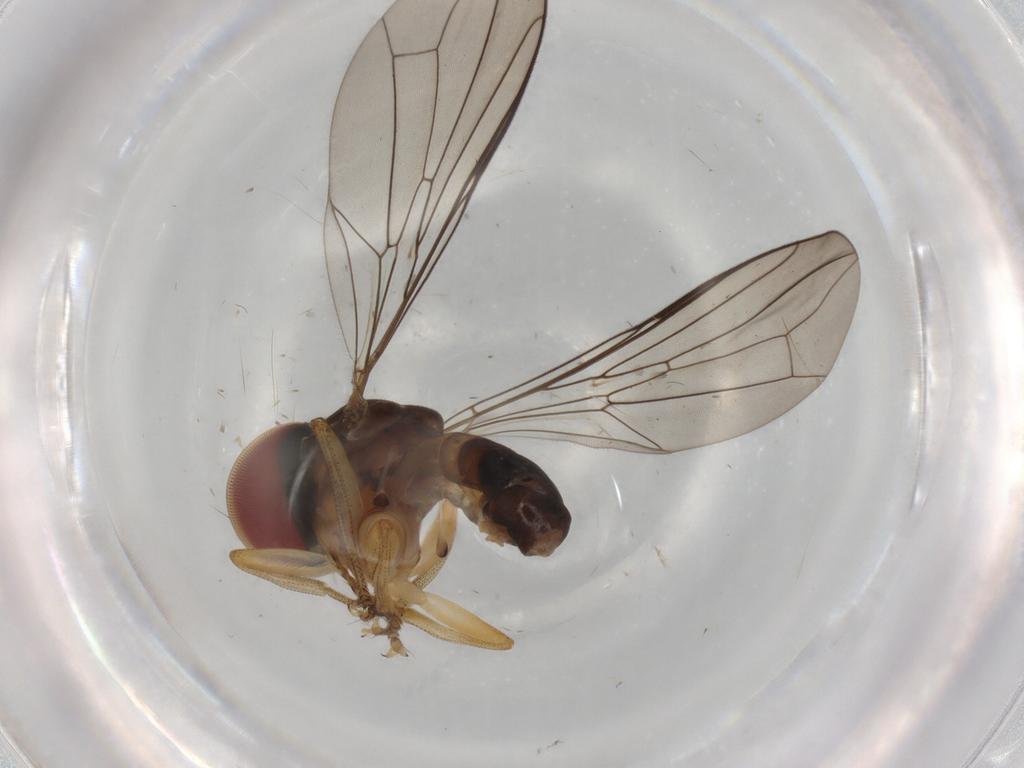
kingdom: Animalia
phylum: Arthropoda
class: Insecta
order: Diptera
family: Pipunculidae
